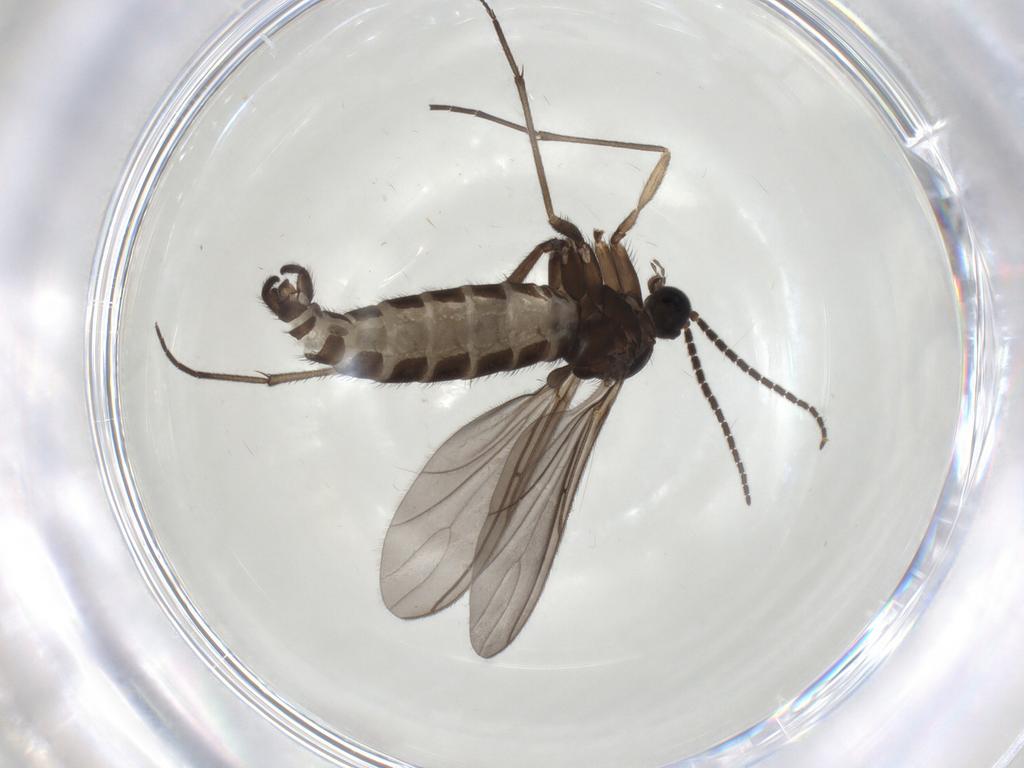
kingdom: Animalia
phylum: Arthropoda
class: Insecta
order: Diptera
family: Sciaridae
